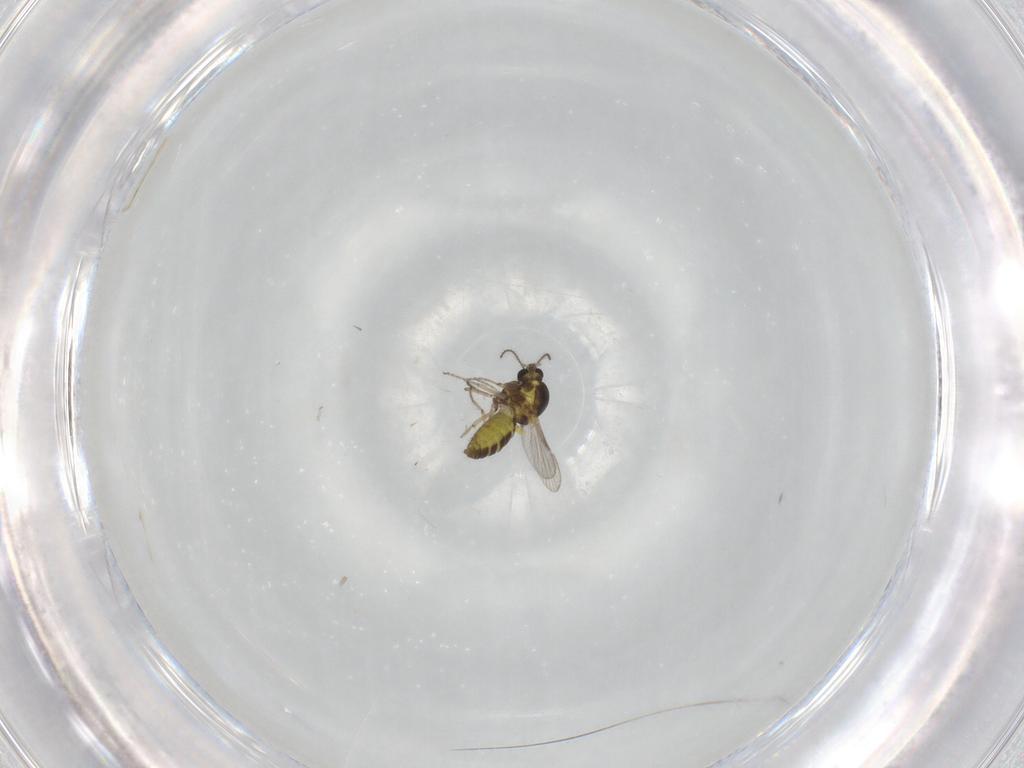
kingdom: Animalia
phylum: Arthropoda
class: Insecta
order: Diptera
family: Ceratopogonidae
